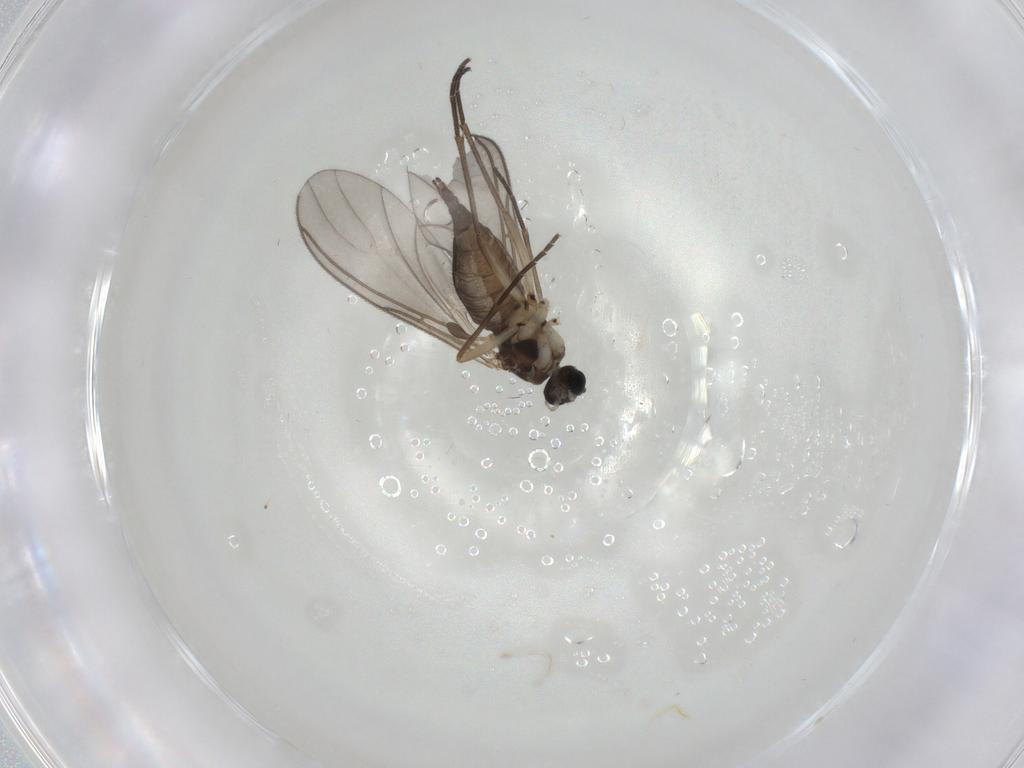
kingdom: Animalia
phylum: Arthropoda
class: Insecta
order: Diptera
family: Sciaridae
